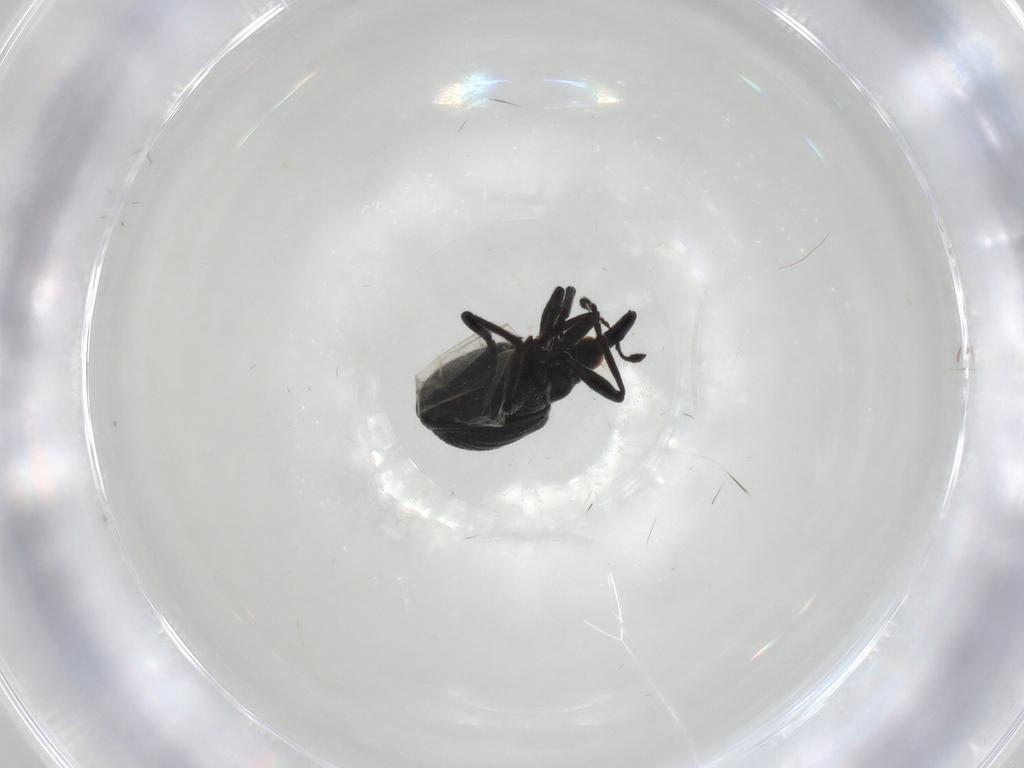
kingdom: Animalia
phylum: Arthropoda
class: Insecta
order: Coleoptera
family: Brentidae
